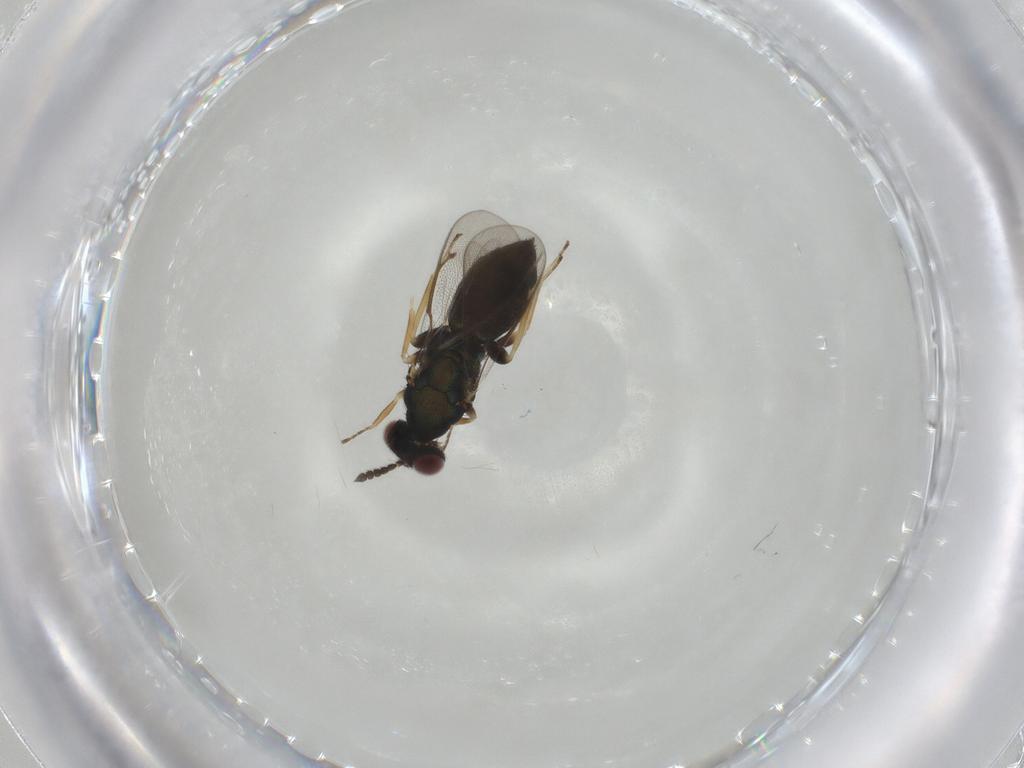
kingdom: Animalia
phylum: Arthropoda
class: Insecta
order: Hymenoptera
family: Eulophidae
